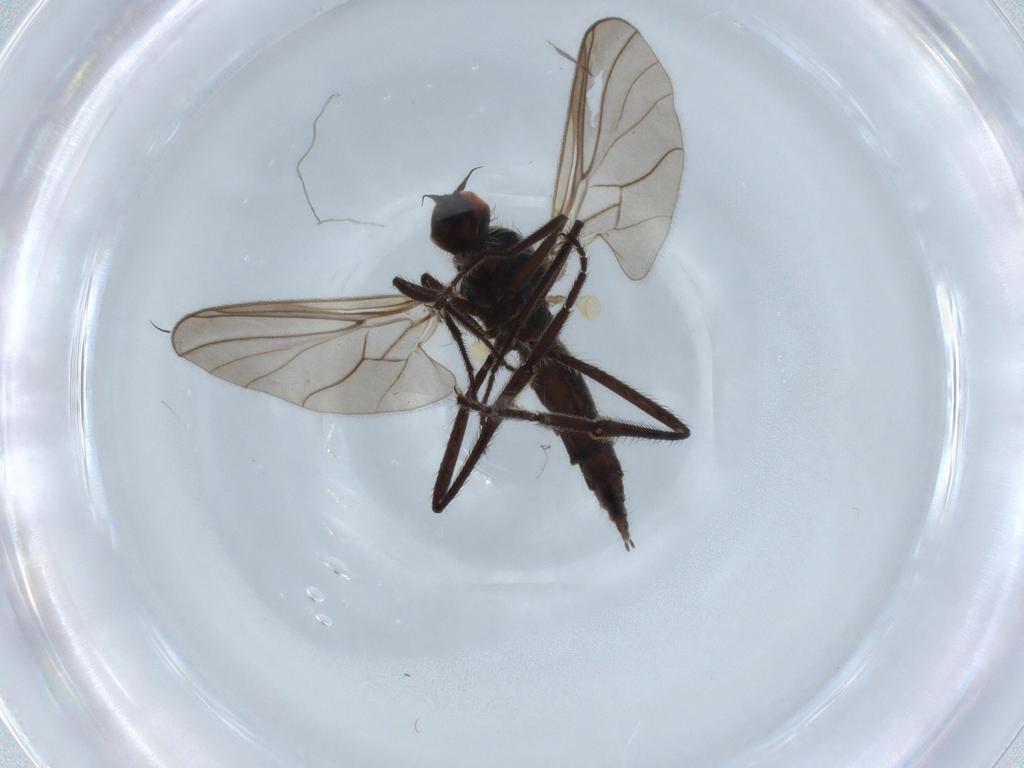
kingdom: Animalia
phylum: Arthropoda
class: Insecta
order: Diptera
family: Hybotidae
